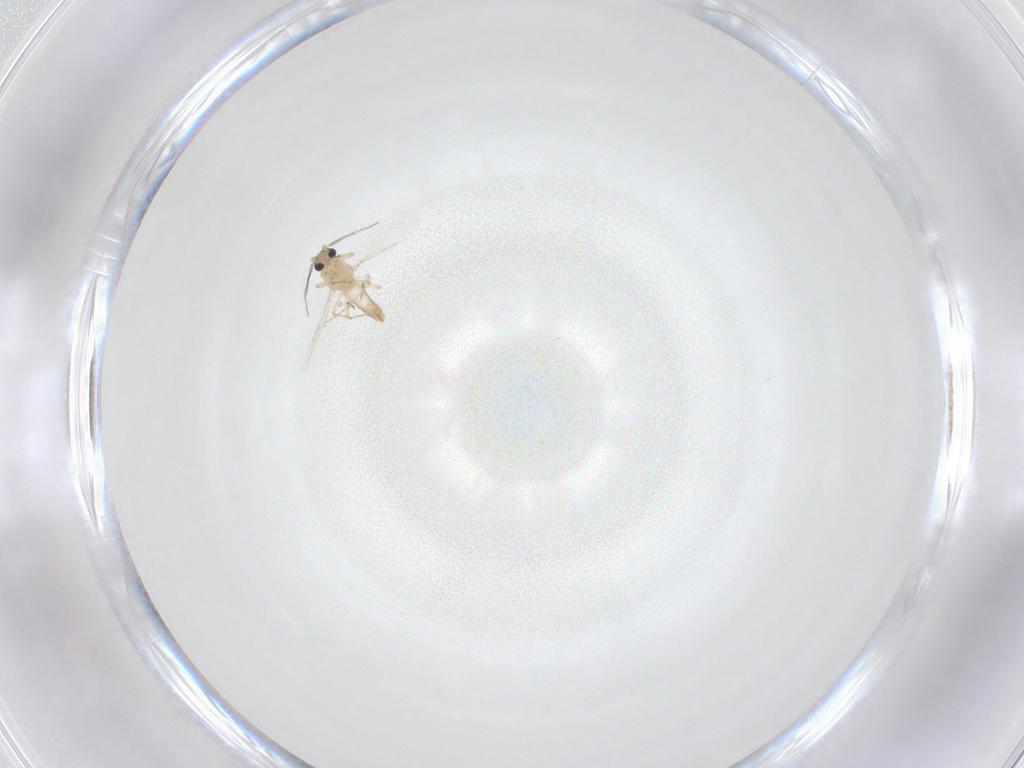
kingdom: Animalia
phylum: Arthropoda
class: Insecta
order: Diptera
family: Ceratopogonidae
